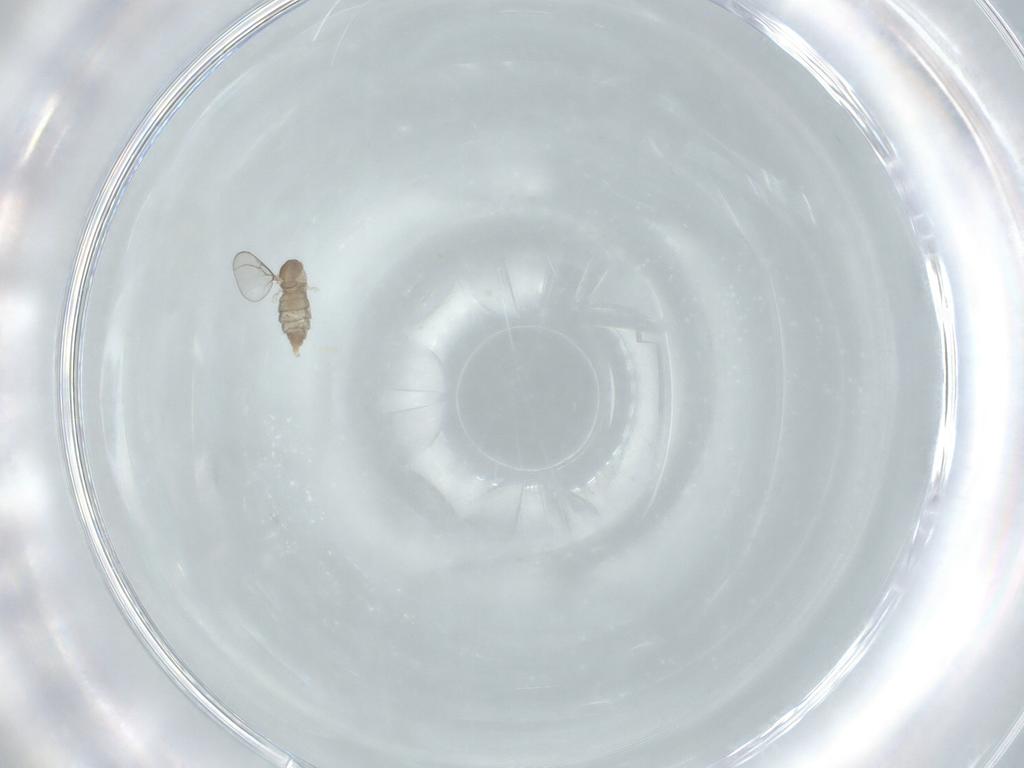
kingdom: Animalia
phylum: Arthropoda
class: Insecta
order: Diptera
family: Cecidomyiidae
